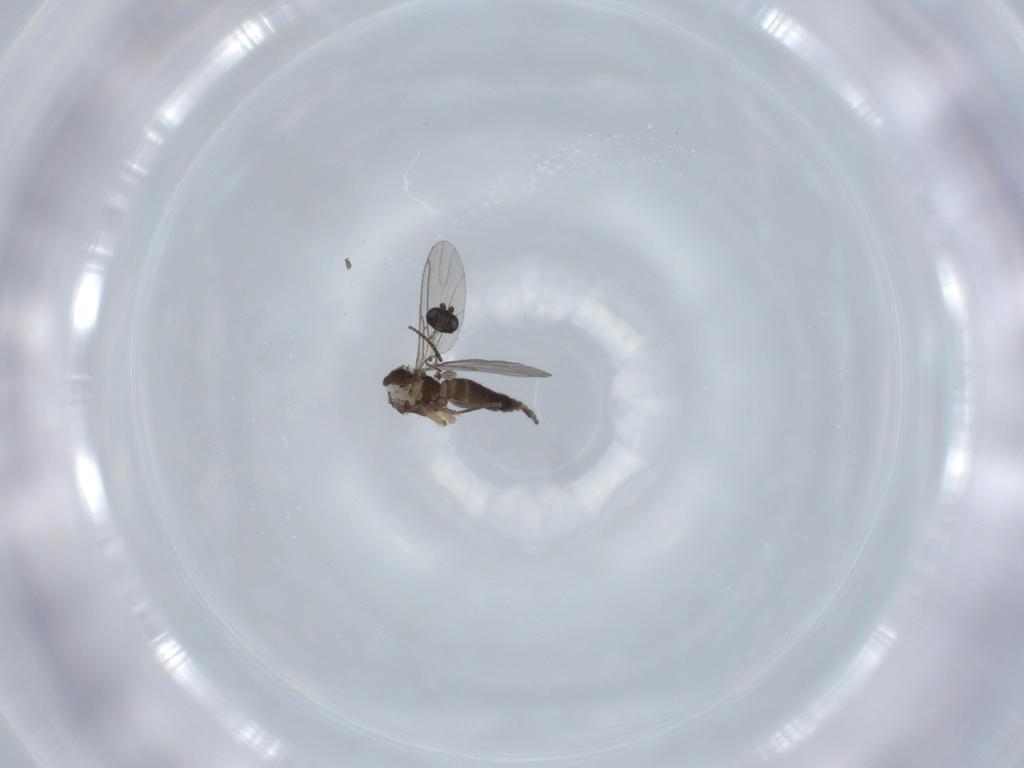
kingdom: Animalia
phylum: Arthropoda
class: Insecta
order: Diptera
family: Sciaridae
